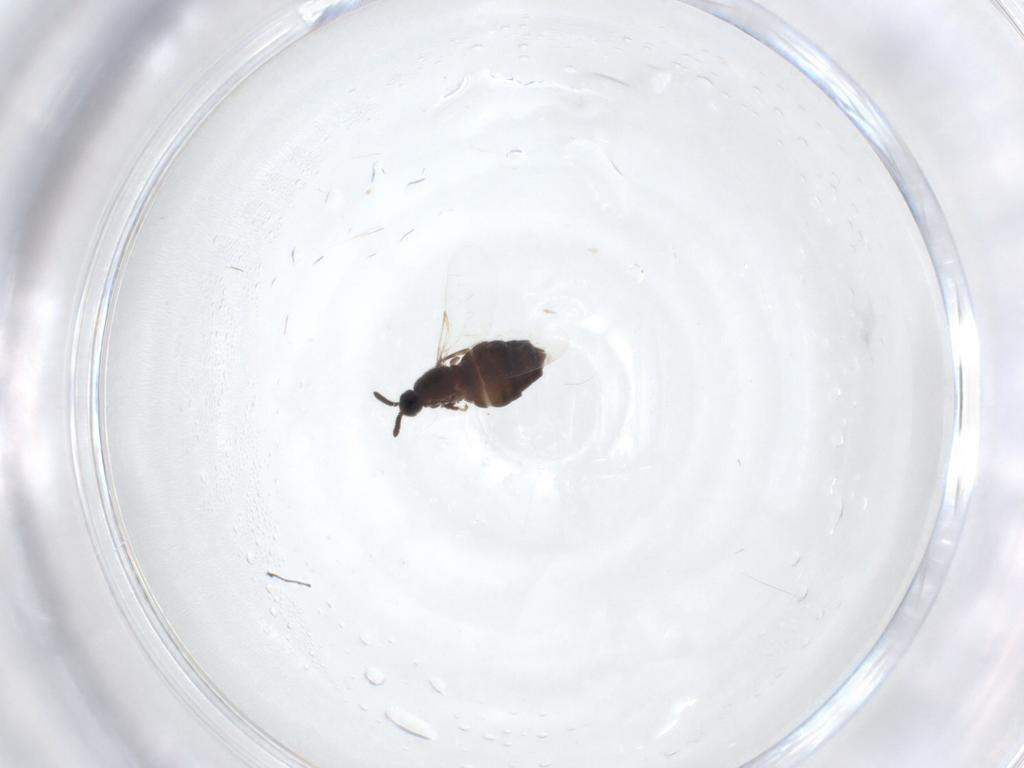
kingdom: Animalia
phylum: Arthropoda
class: Insecta
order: Diptera
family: Scatopsidae
